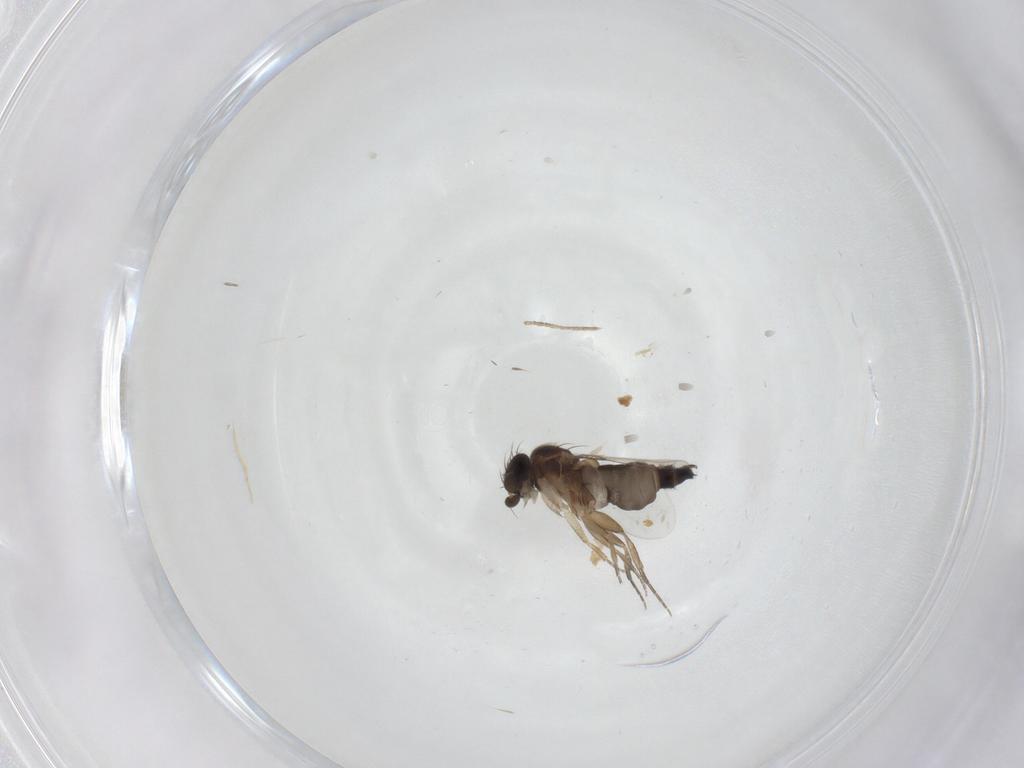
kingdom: Animalia
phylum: Arthropoda
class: Insecta
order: Diptera
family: Phoridae
